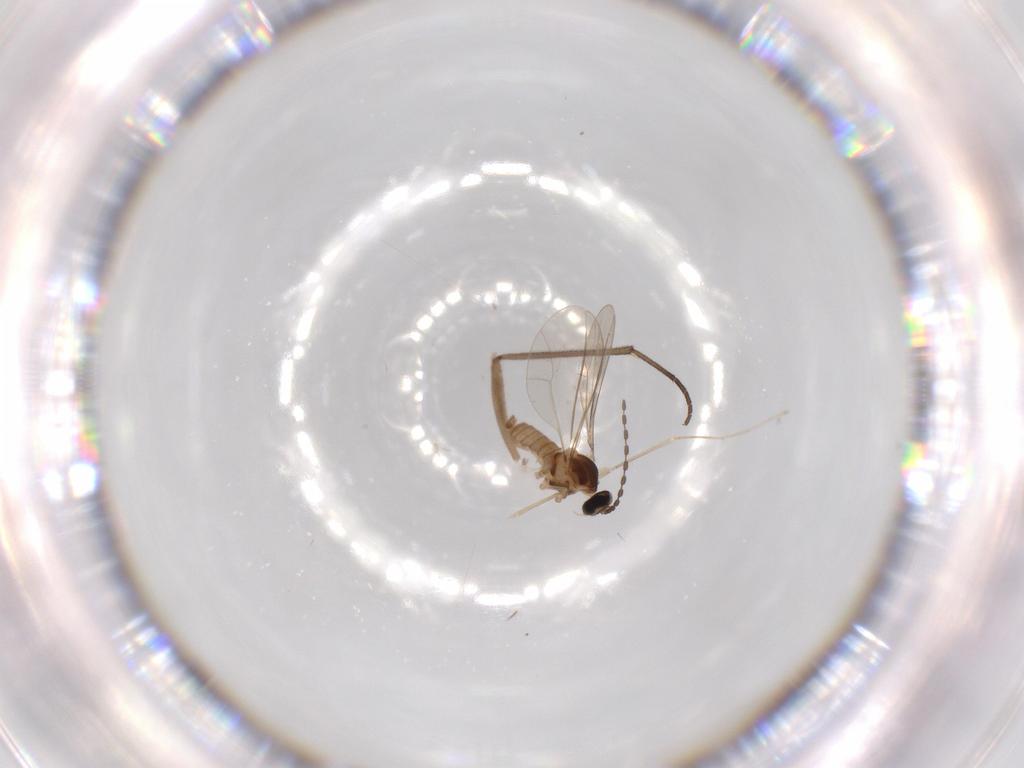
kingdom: Animalia
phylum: Arthropoda
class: Insecta
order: Diptera
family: Cecidomyiidae
